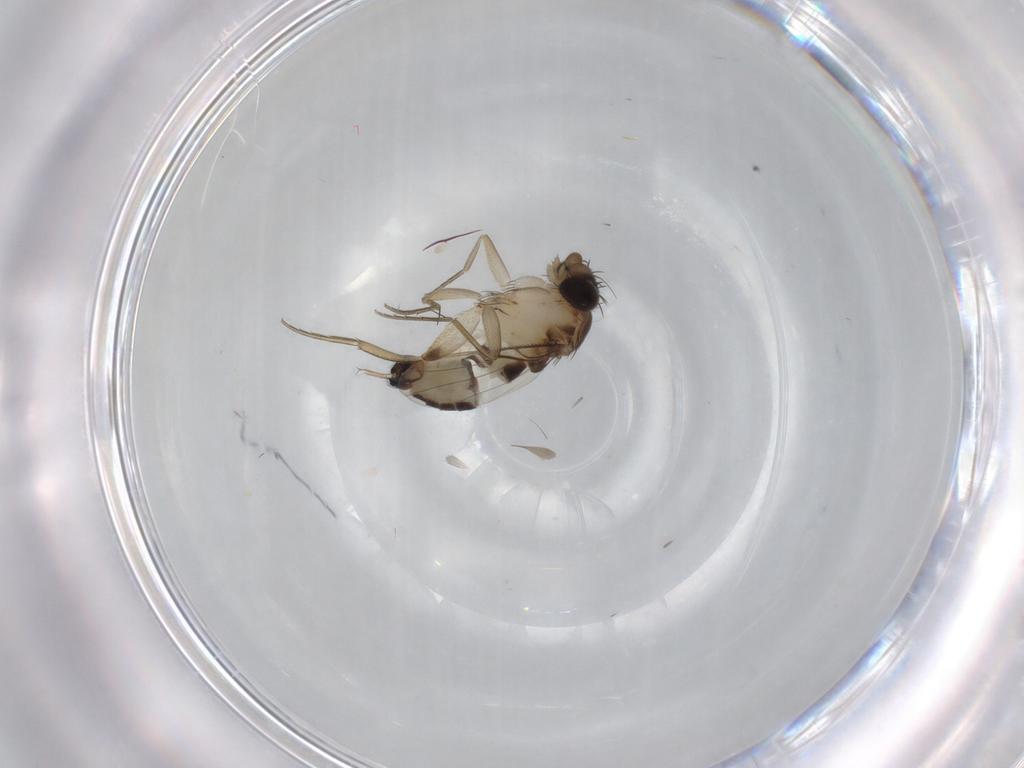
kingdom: Animalia
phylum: Arthropoda
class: Insecta
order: Diptera
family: Phoridae
